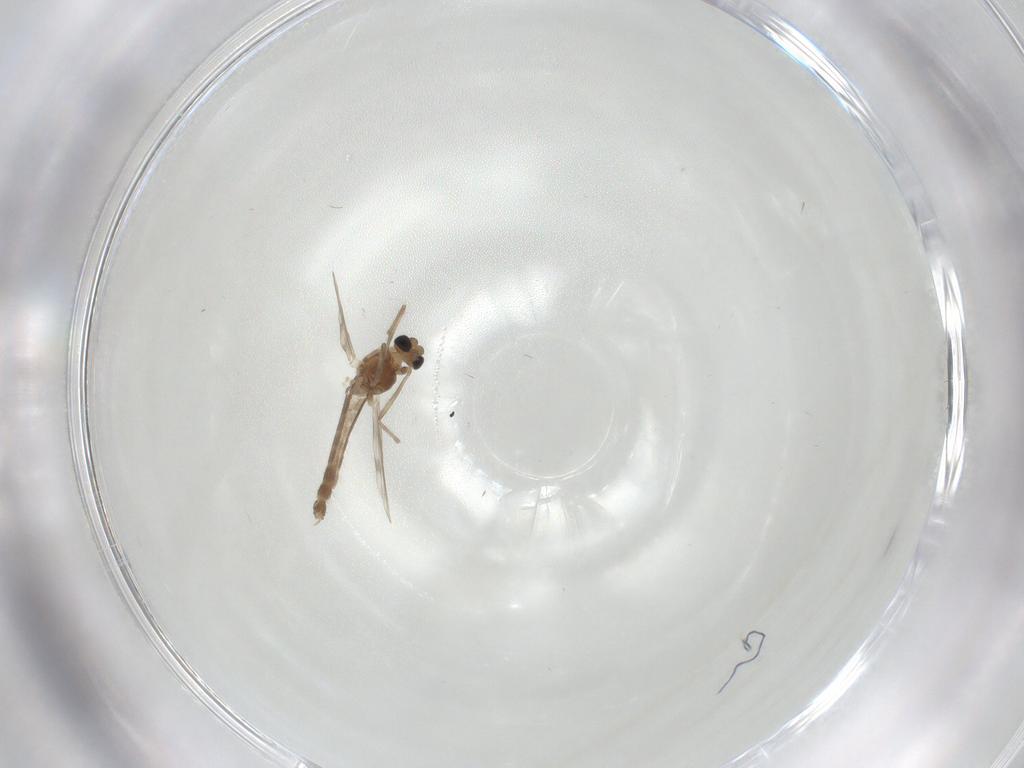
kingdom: Animalia
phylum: Arthropoda
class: Insecta
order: Diptera
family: Chironomidae
